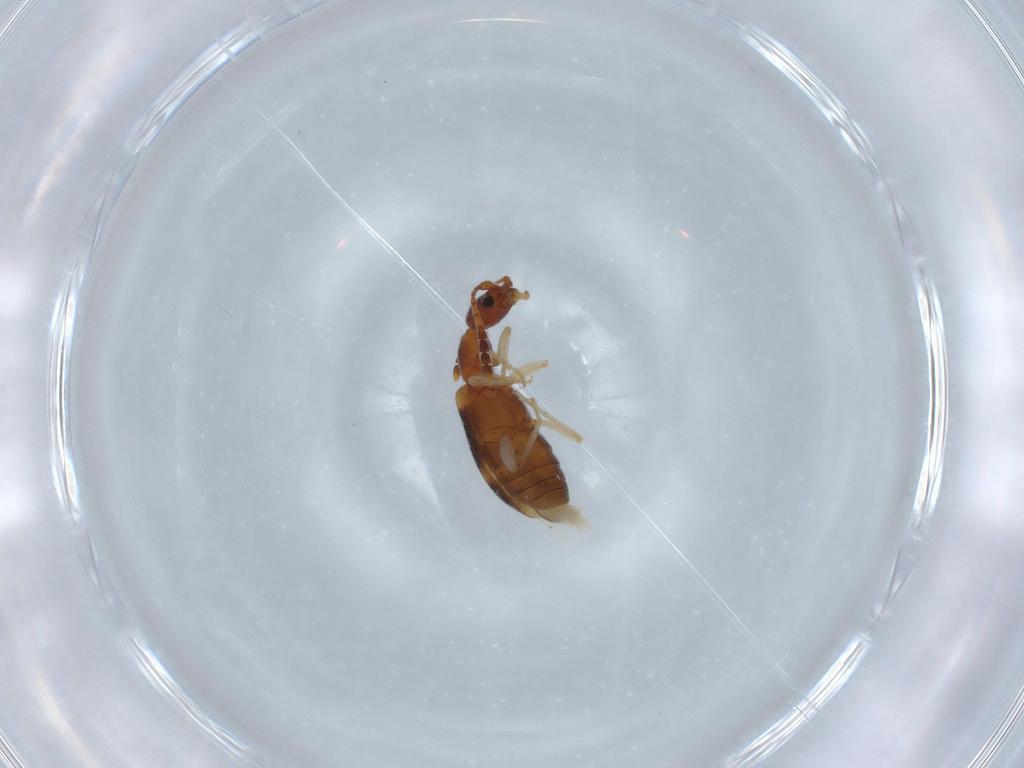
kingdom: Animalia
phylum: Arthropoda
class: Insecta
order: Coleoptera
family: Anthicidae
